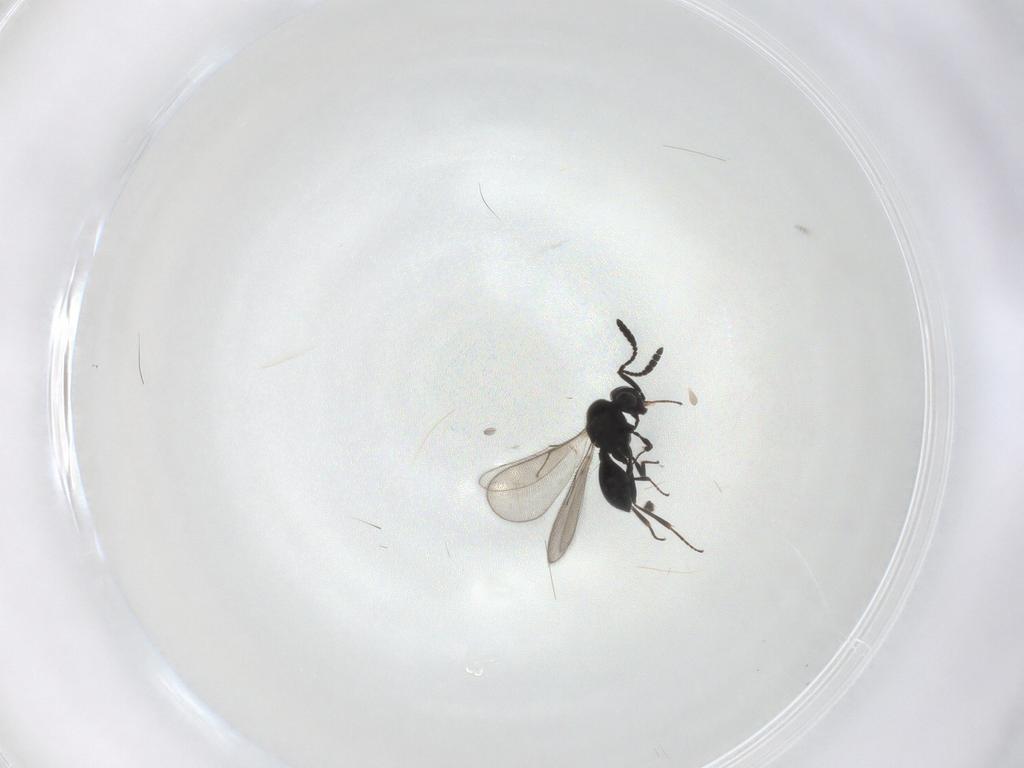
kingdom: Animalia
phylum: Arthropoda
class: Insecta
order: Hymenoptera
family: Scelionidae
